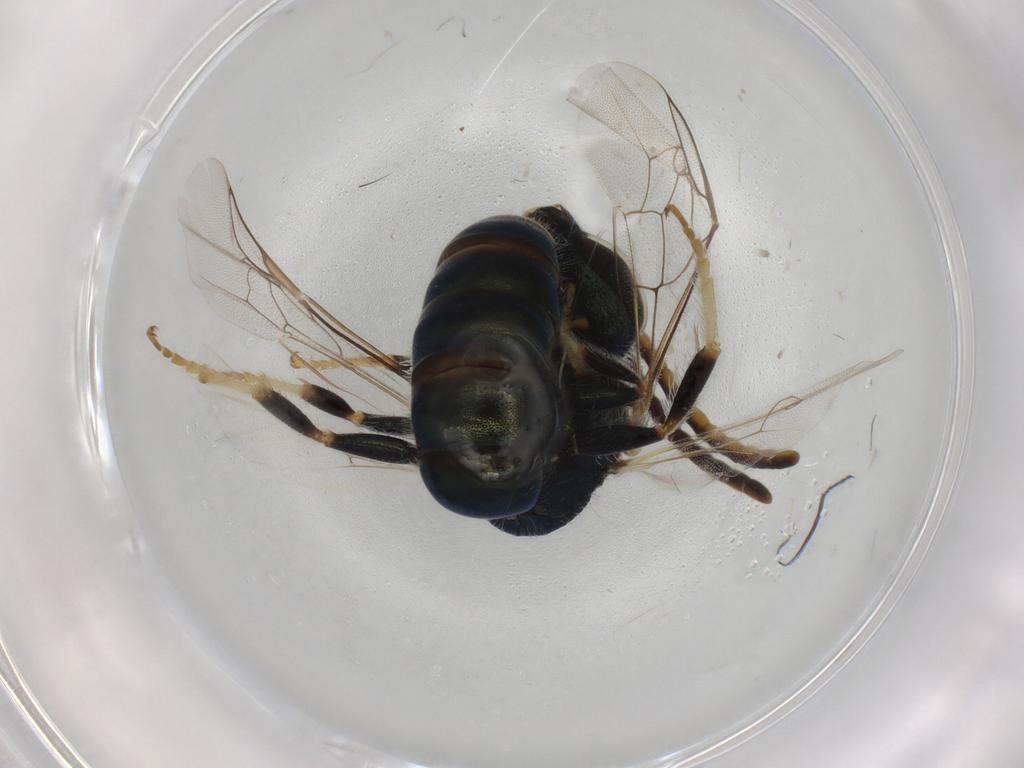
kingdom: Animalia
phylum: Arthropoda
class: Insecta
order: Hymenoptera
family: Halictidae
